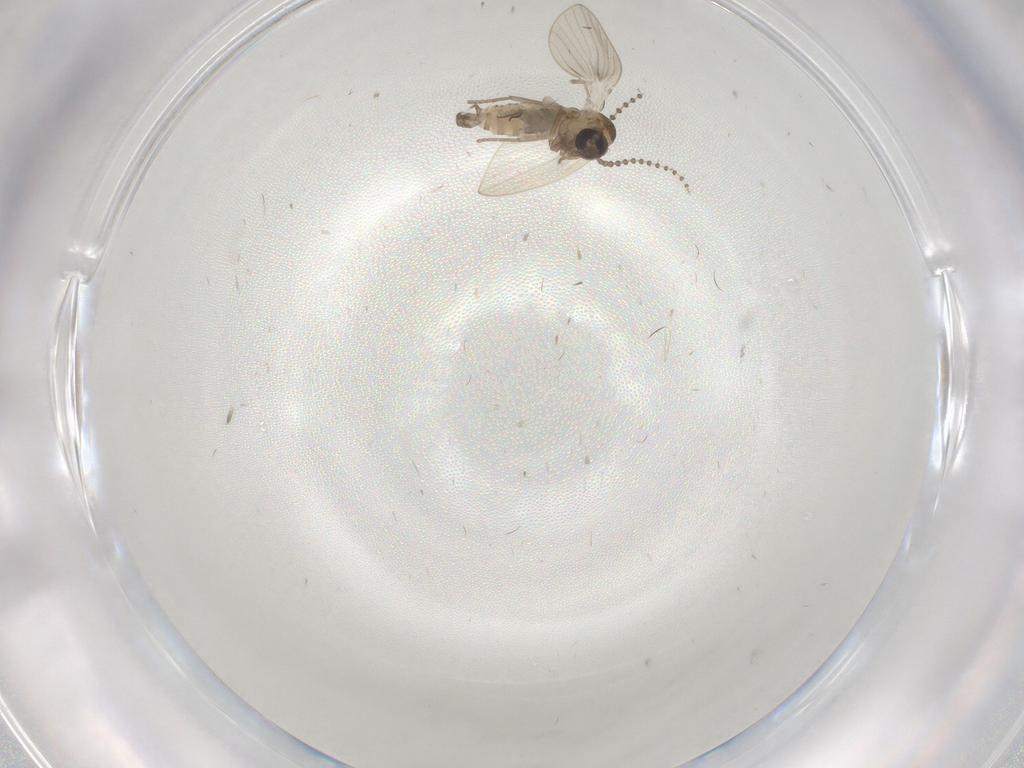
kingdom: Animalia
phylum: Arthropoda
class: Insecta
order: Diptera
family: Psychodidae
